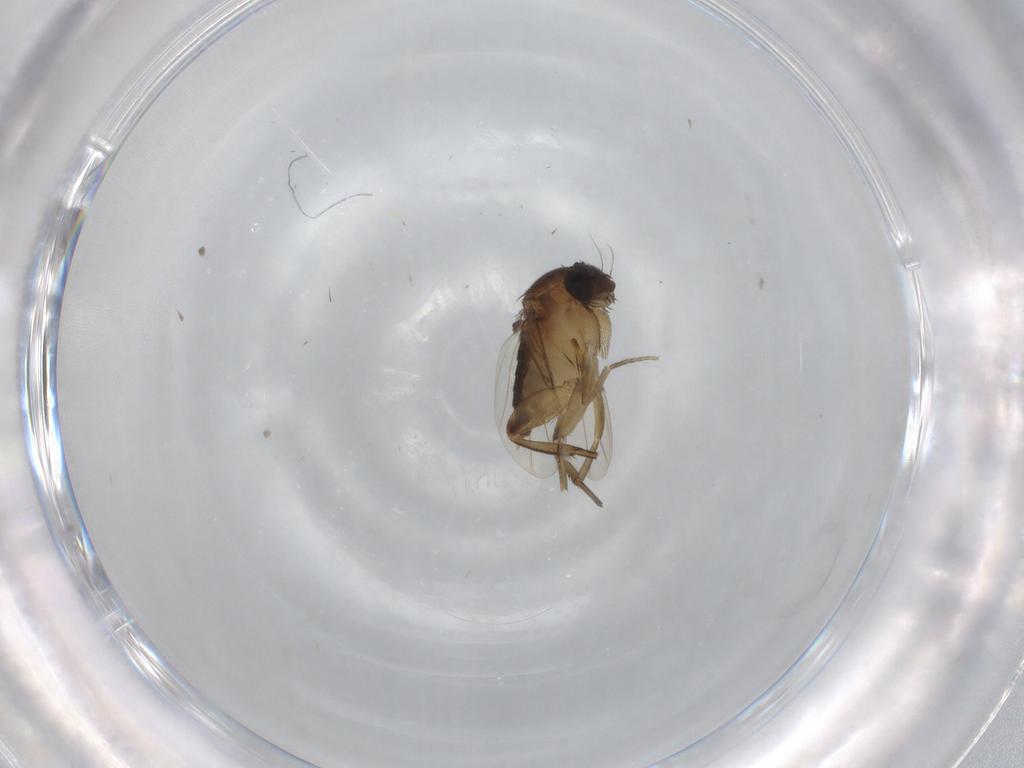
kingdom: Animalia
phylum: Arthropoda
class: Insecta
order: Diptera
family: Phoridae
